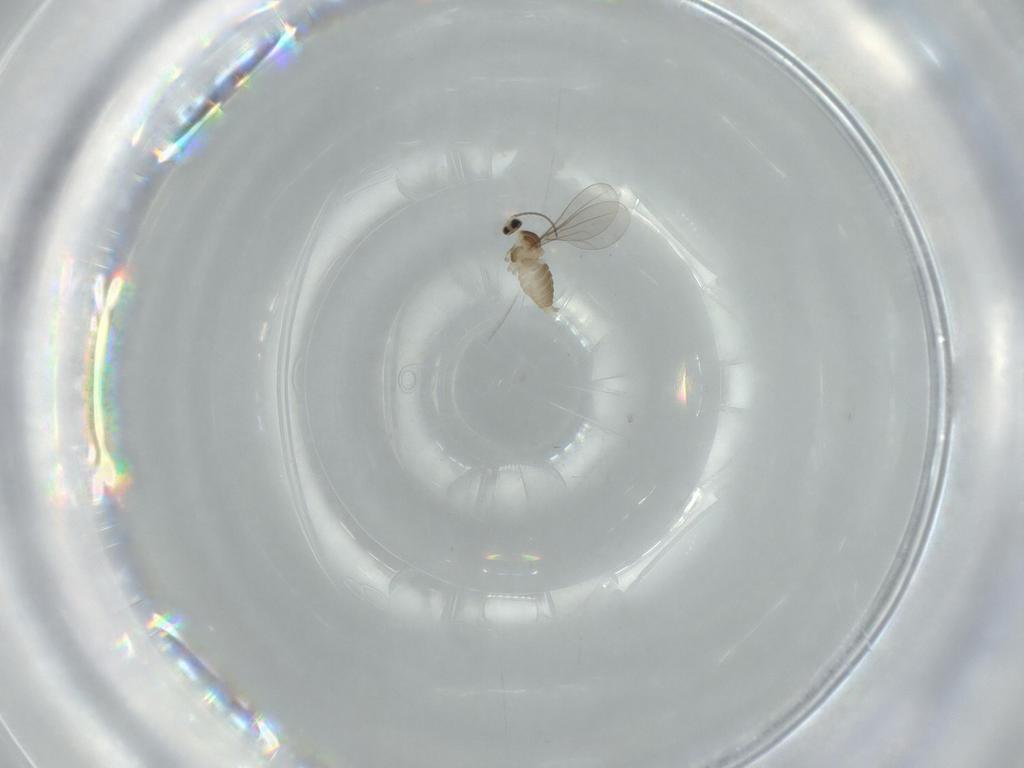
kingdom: Animalia
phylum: Arthropoda
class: Insecta
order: Diptera
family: Cecidomyiidae
